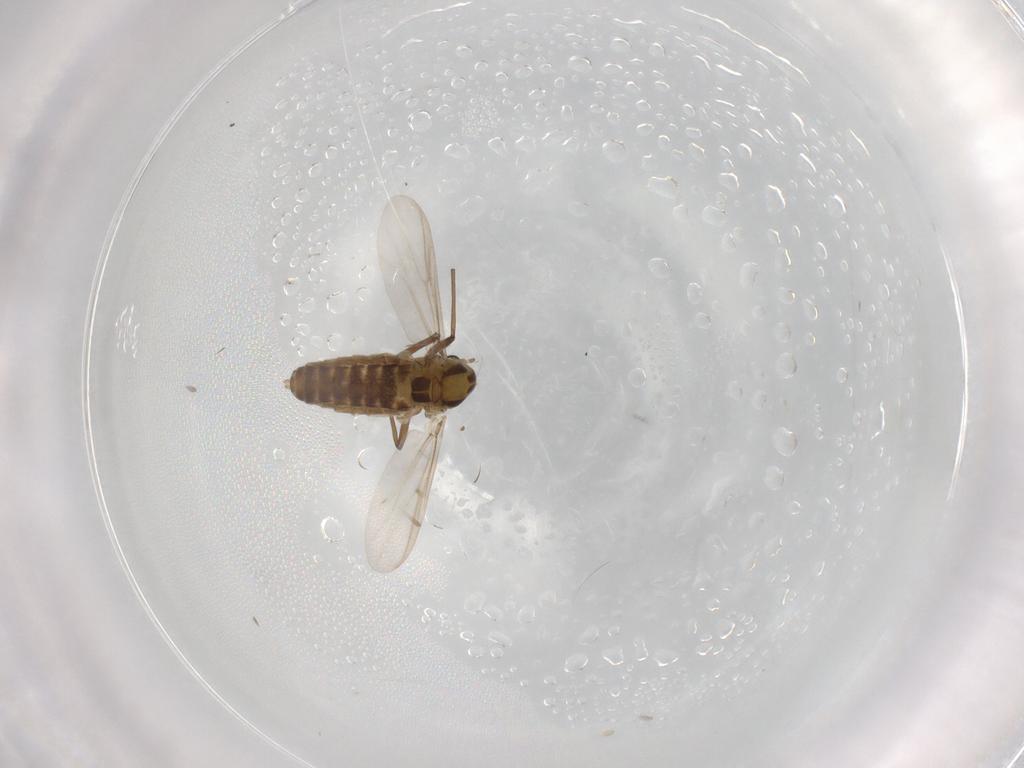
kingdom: Animalia
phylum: Arthropoda
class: Insecta
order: Diptera
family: Chironomidae
